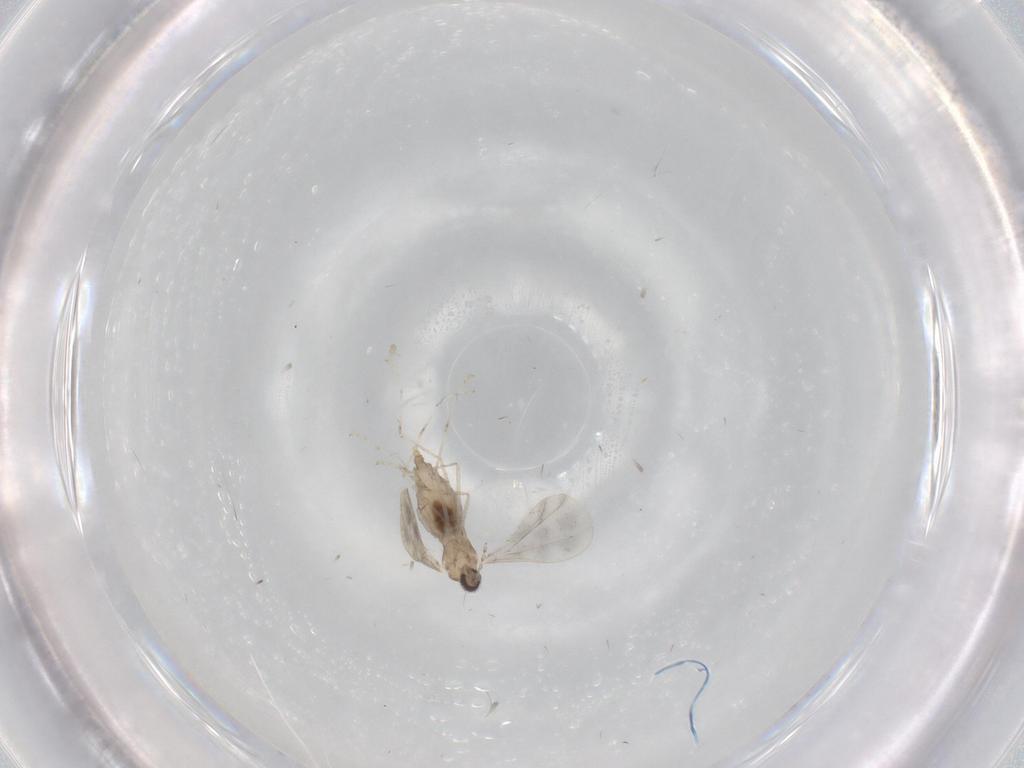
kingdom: Animalia
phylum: Arthropoda
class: Insecta
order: Diptera
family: Cecidomyiidae
